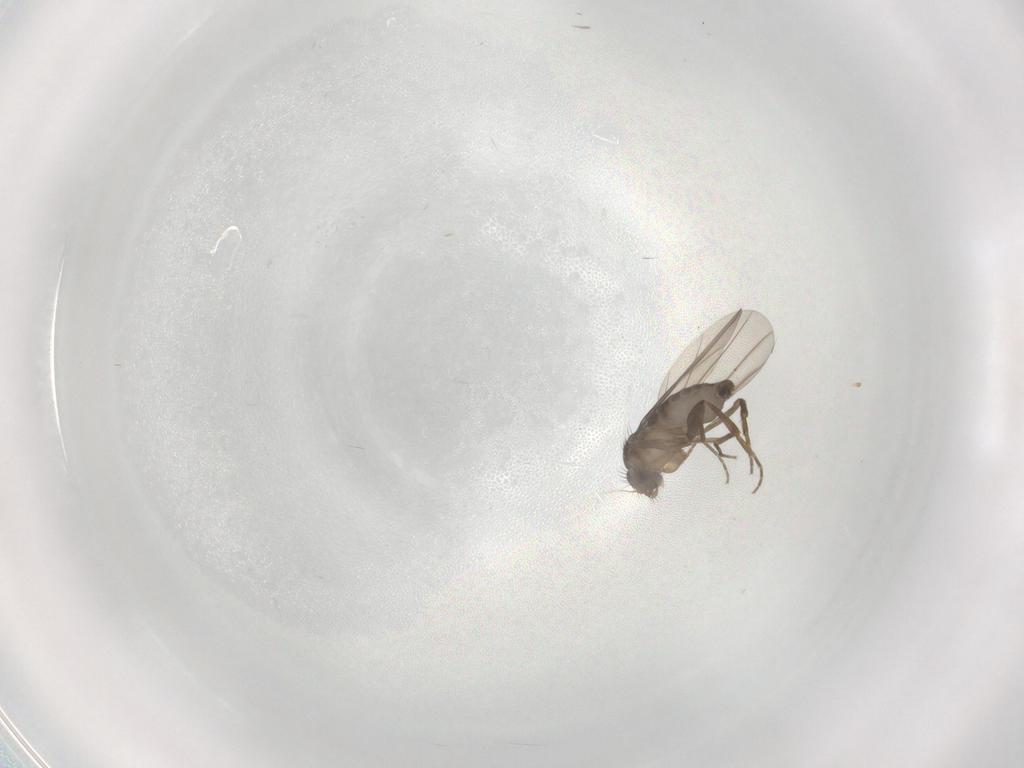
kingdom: Animalia
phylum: Arthropoda
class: Insecta
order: Diptera
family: Phoridae
